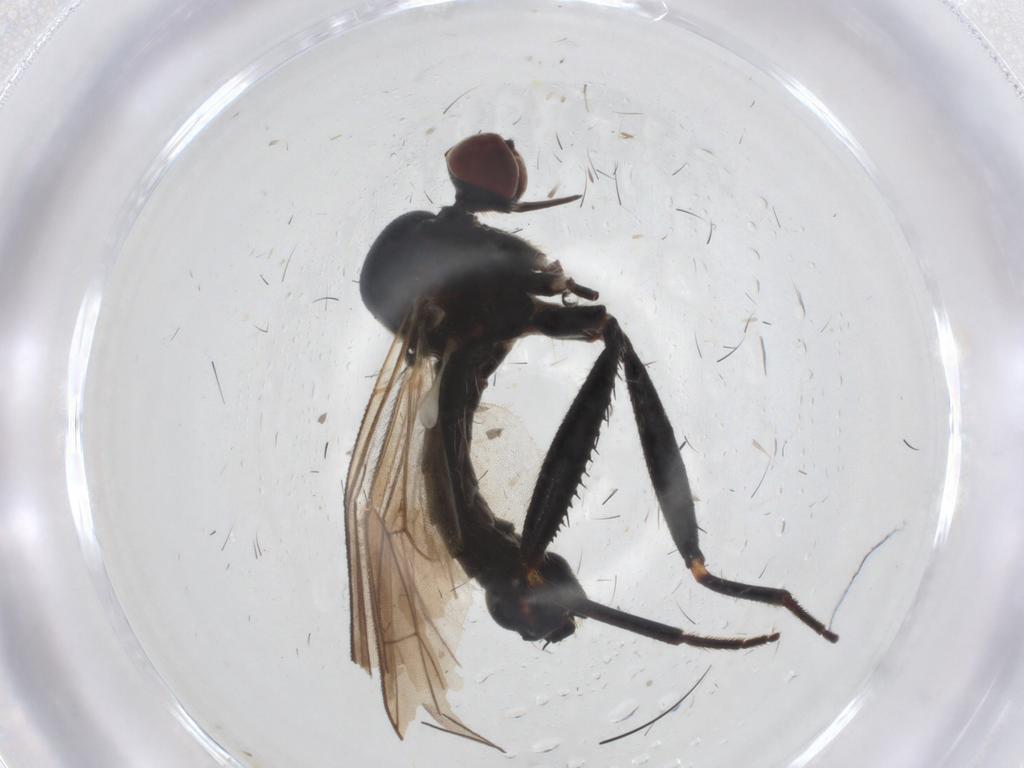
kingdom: Animalia
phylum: Arthropoda
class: Insecta
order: Diptera
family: Hybotidae
